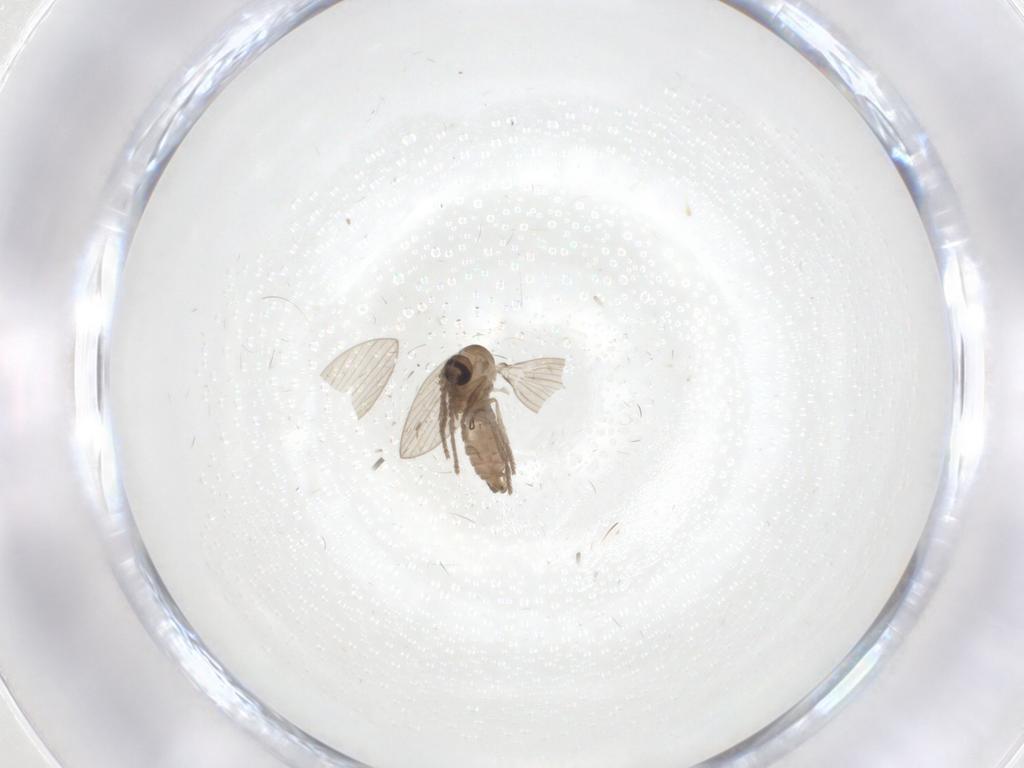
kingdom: Animalia
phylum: Arthropoda
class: Insecta
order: Diptera
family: Psychodidae
